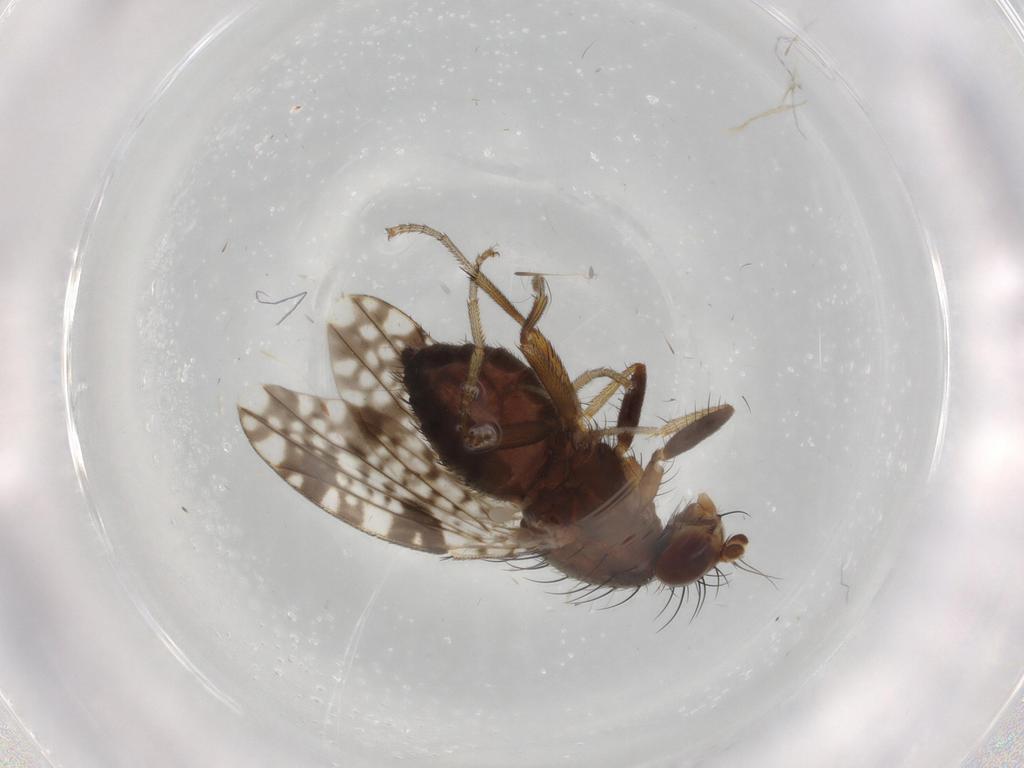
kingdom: Animalia
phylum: Arthropoda
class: Insecta
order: Diptera
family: Tephritidae
